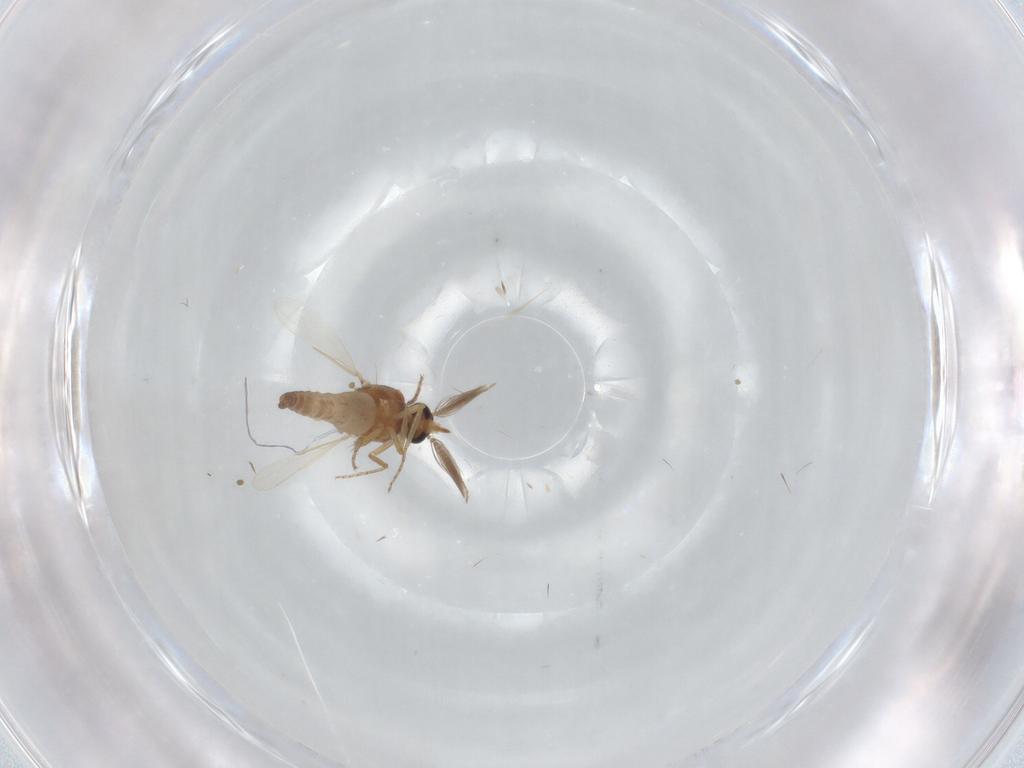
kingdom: Animalia
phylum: Arthropoda
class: Insecta
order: Diptera
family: Ceratopogonidae
